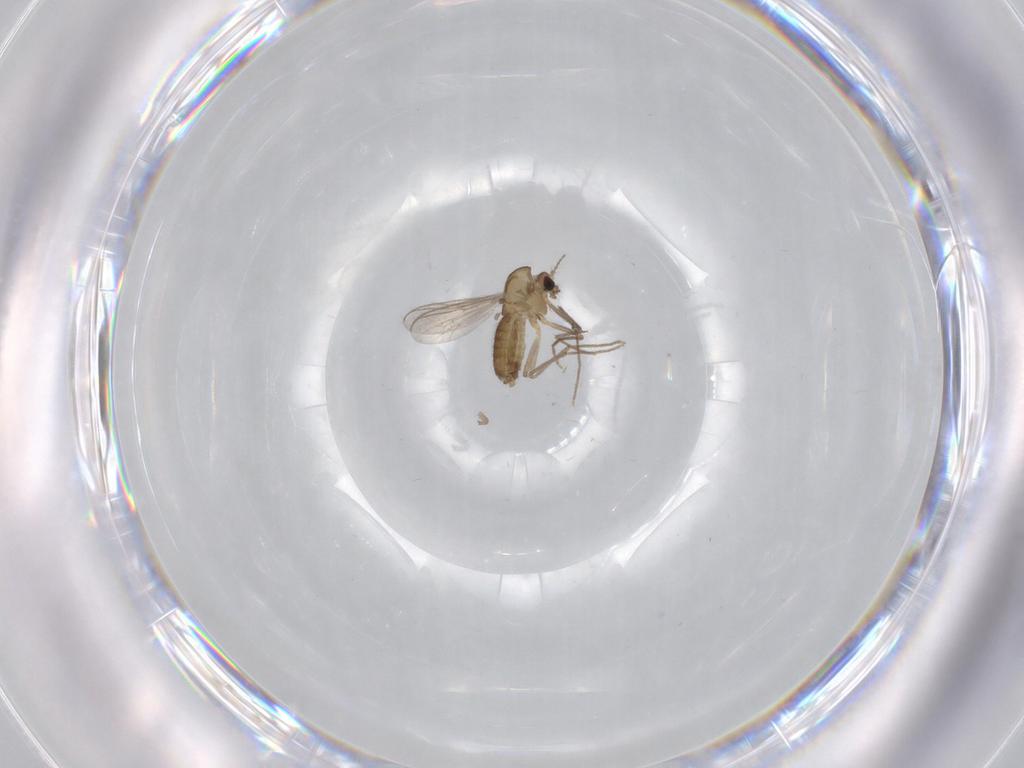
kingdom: Animalia
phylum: Arthropoda
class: Insecta
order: Diptera
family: Chironomidae
